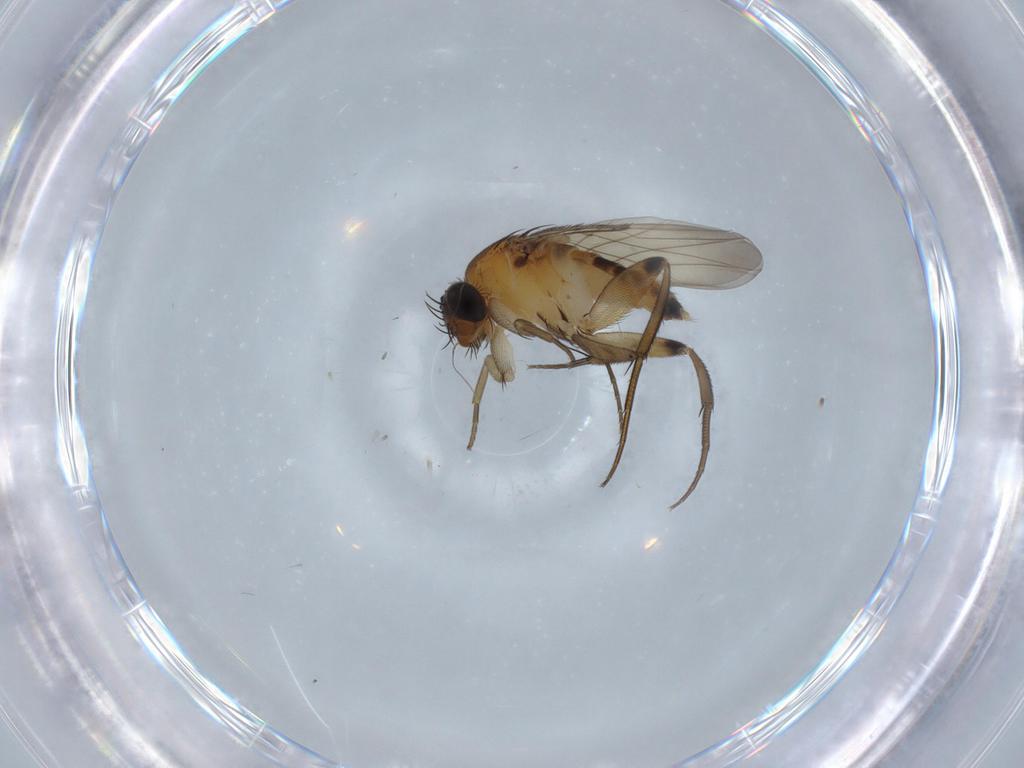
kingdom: Animalia
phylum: Arthropoda
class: Insecta
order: Diptera
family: Phoridae
